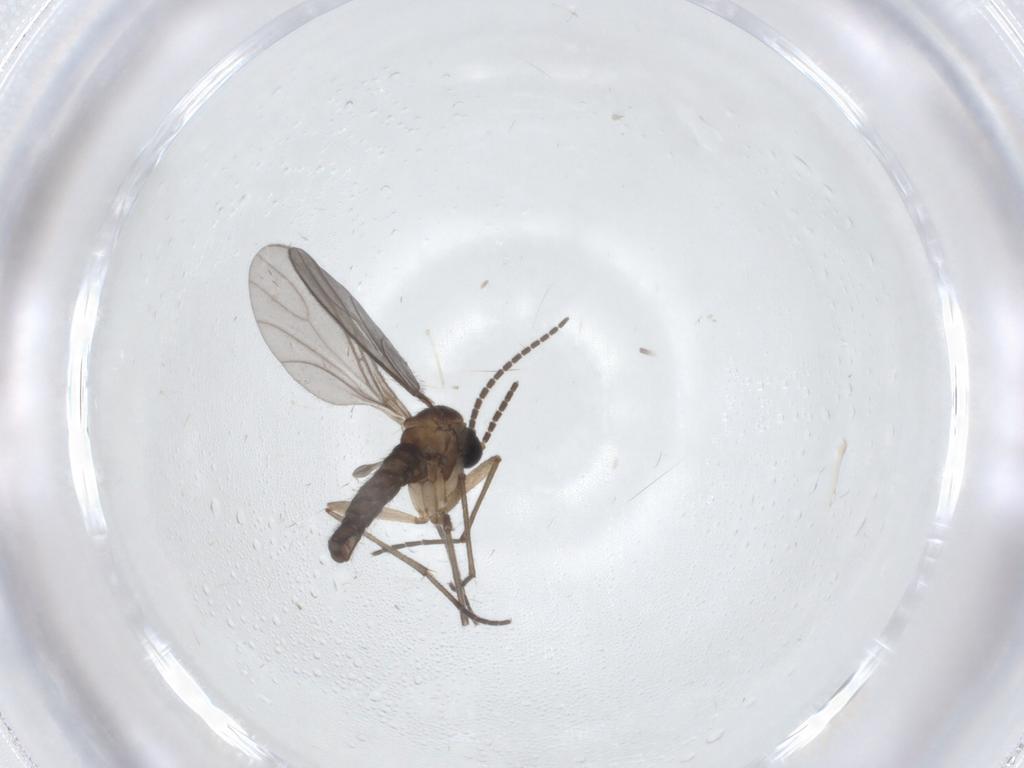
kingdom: Animalia
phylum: Arthropoda
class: Insecta
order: Diptera
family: Sciaridae
